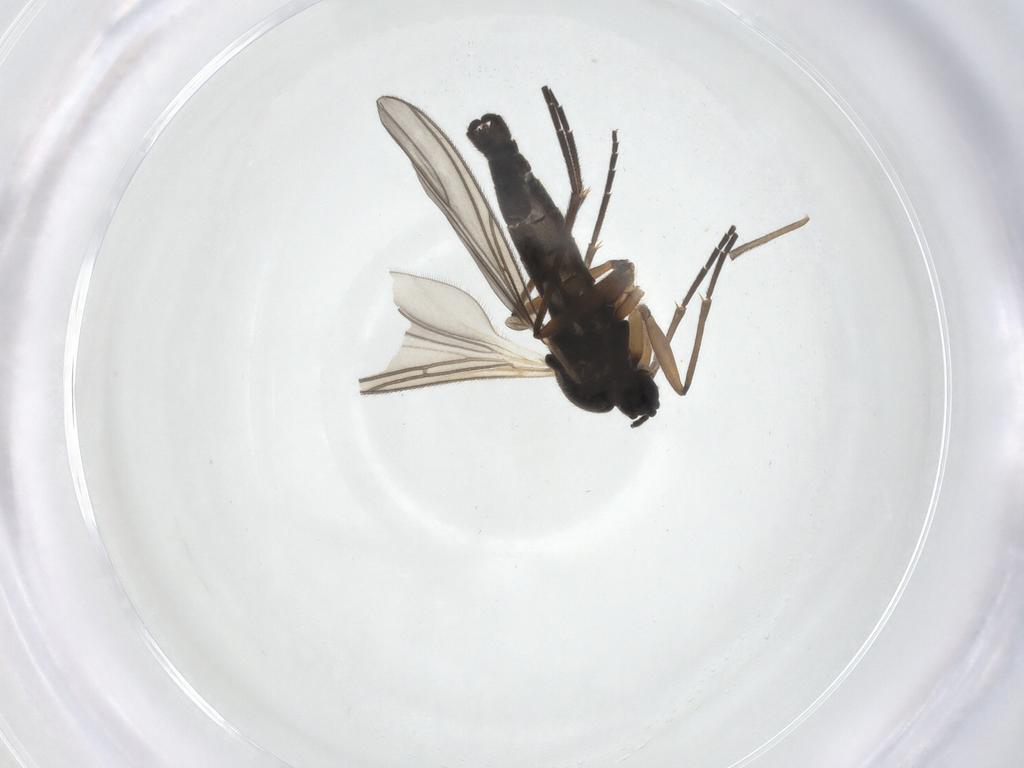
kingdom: Animalia
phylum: Arthropoda
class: Insecta
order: Diptera
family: Sciaridae
